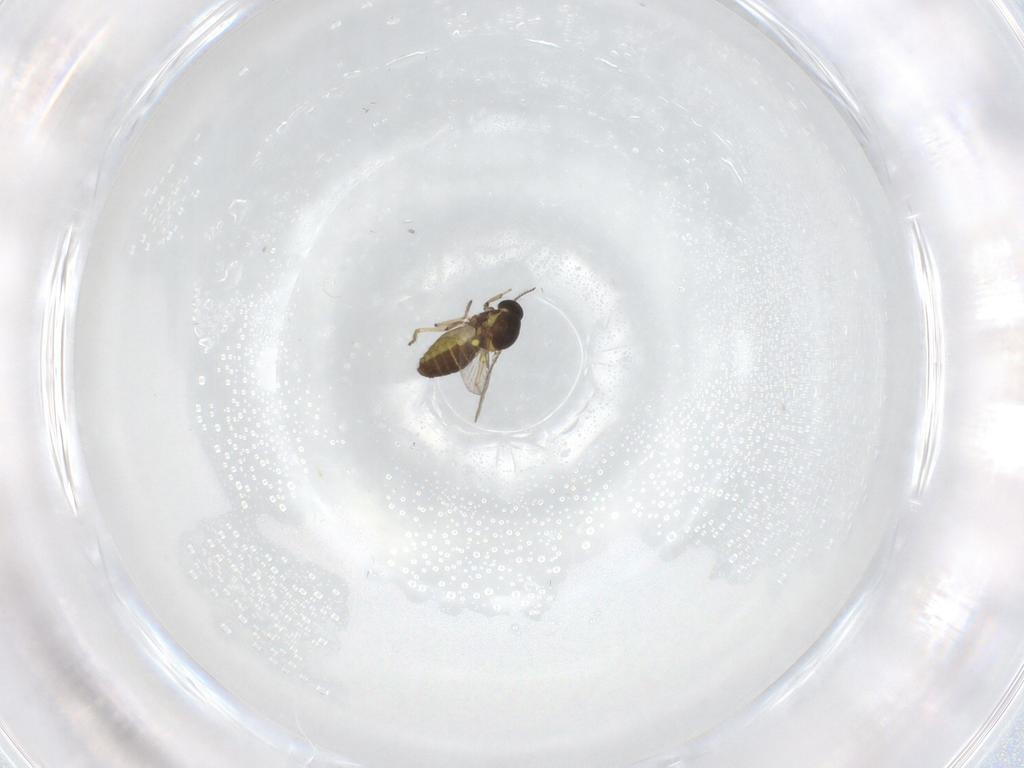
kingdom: Animalia
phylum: Arthropoda
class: Insecta
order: Diptera
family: Ceratopogonidae
